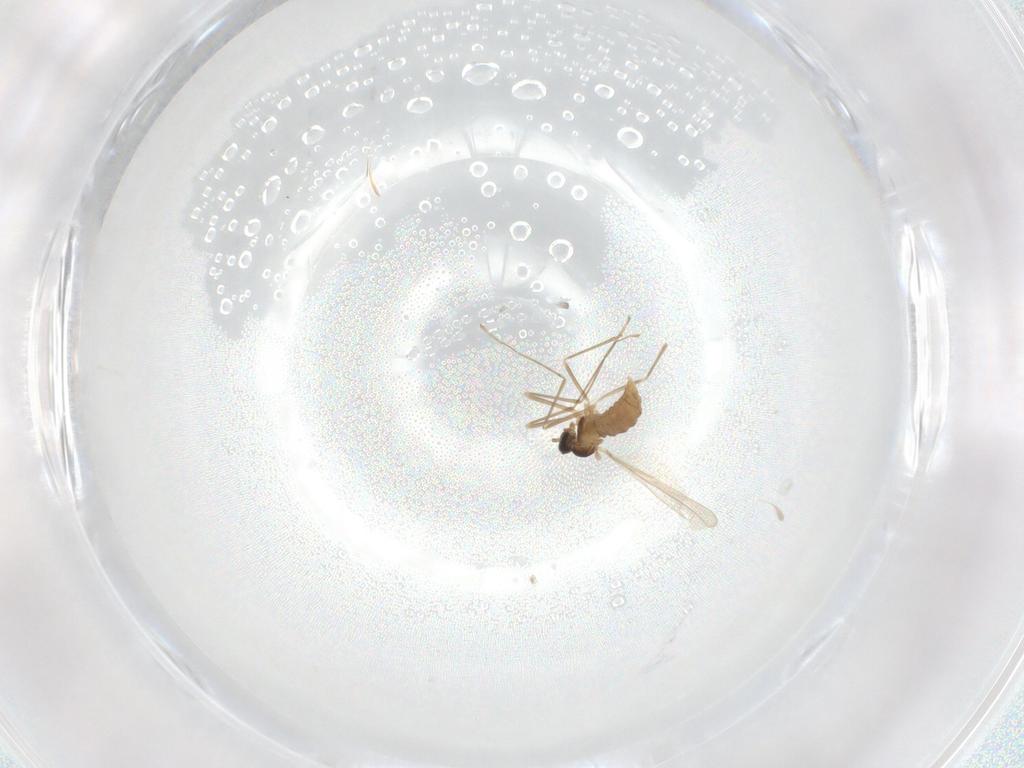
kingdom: Animalia
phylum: Arthropoda
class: Insecta
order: Diptera
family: Cecidomyiidae
